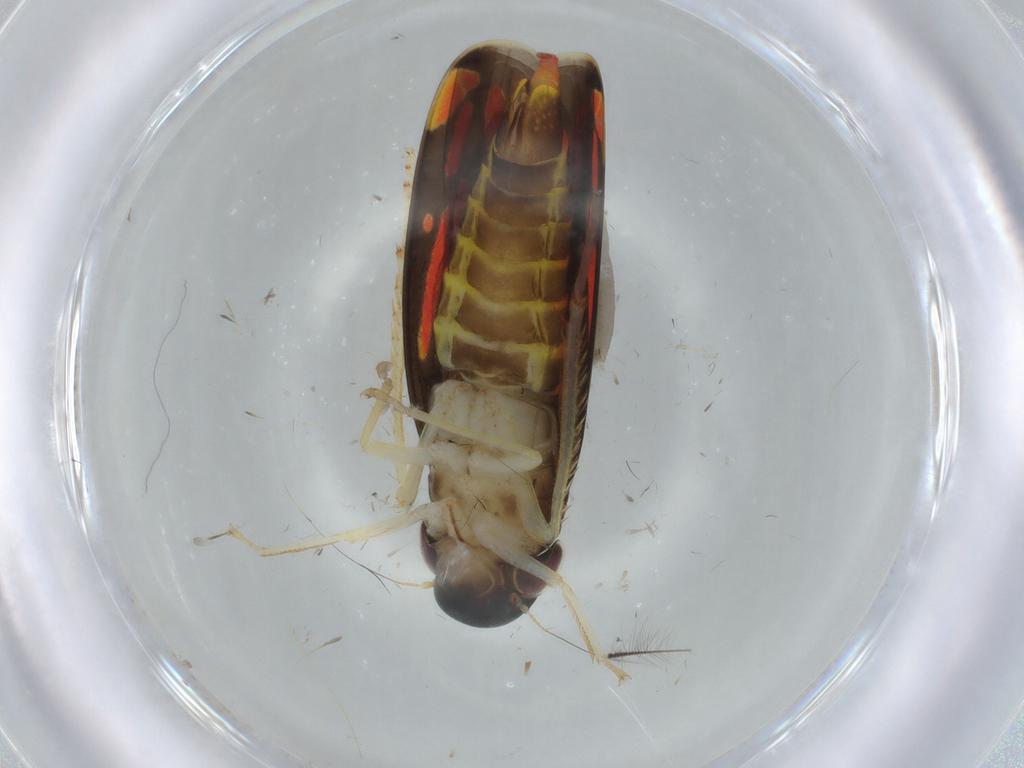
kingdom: Animalia
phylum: Arthropoda
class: Insecta
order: Hemiptera
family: Cicadellidae
